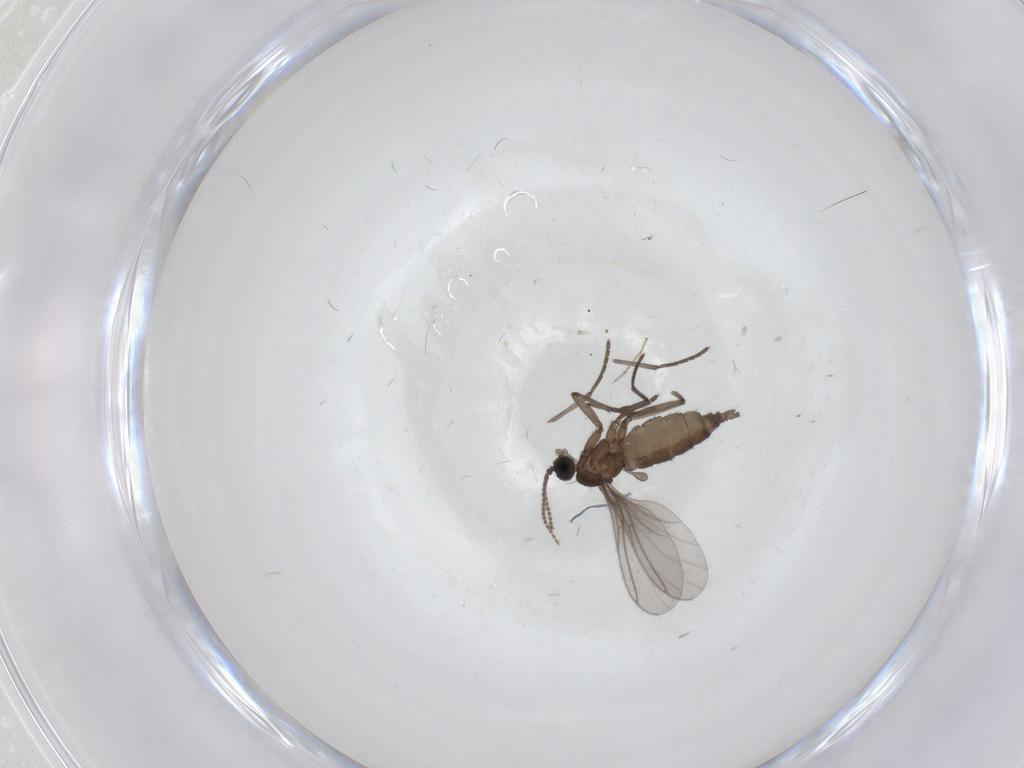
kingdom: Animalia
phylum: Arthropoda
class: Insecta
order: Diptera
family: Sciaridae
